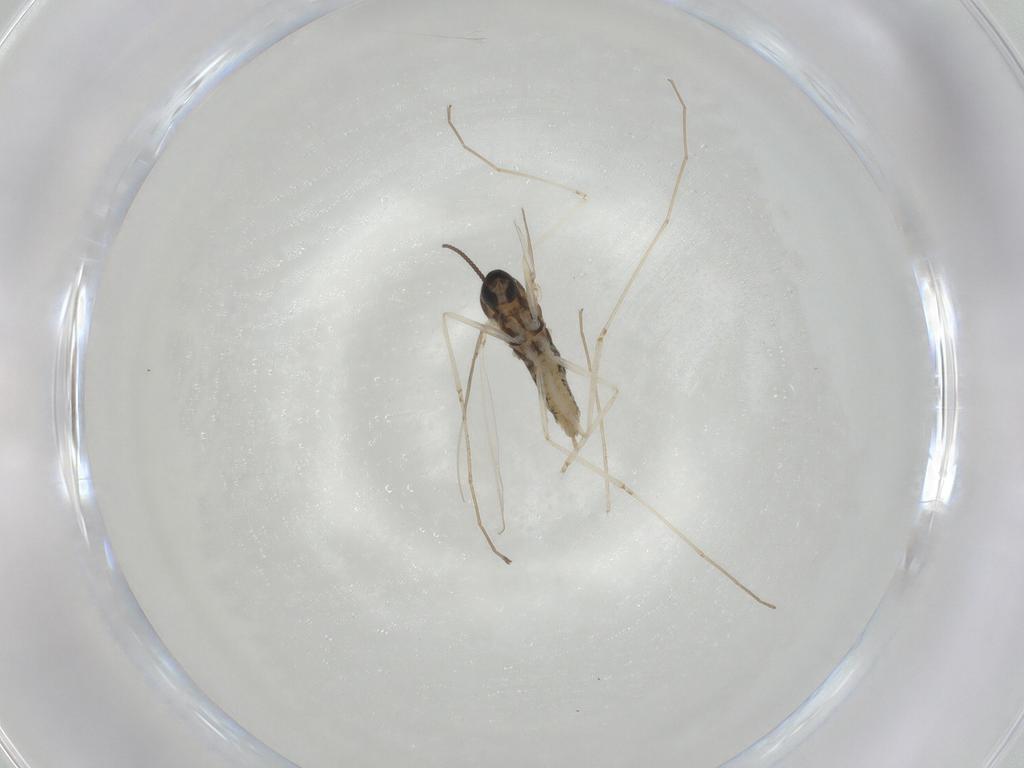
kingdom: Animalia
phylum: Arthropoda
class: Insecta
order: Diptera
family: Cecidomyiidae
